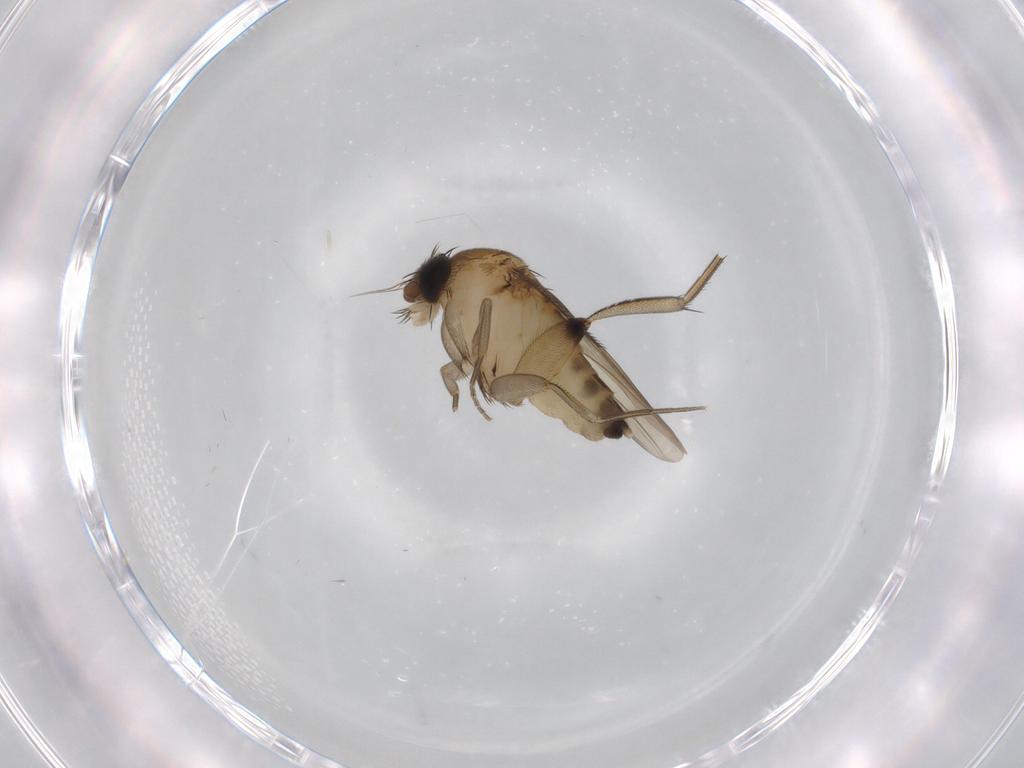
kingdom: Animalia
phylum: Arthropoda
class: Insecta
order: Diptera
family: Phoridae
